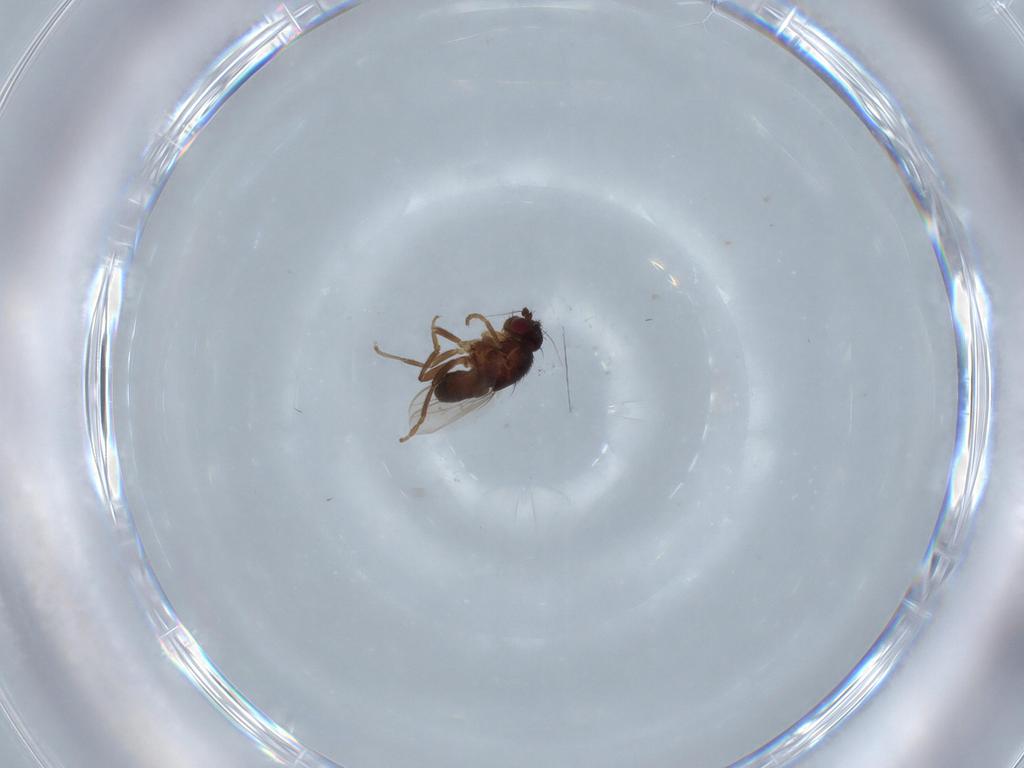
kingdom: Animalia
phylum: Arthropoda
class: Insecta
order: Diptera
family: Sphaeroceridae
